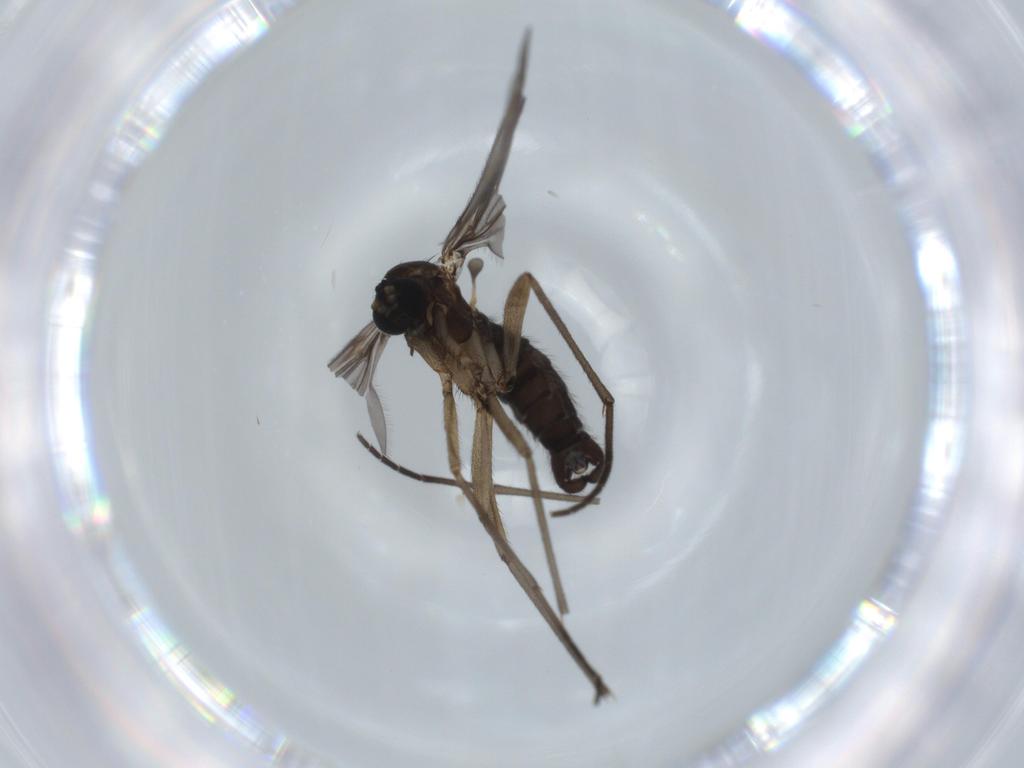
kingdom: Animalia
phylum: Arthropoda
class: Insecta
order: Diptera
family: Sciaridae
